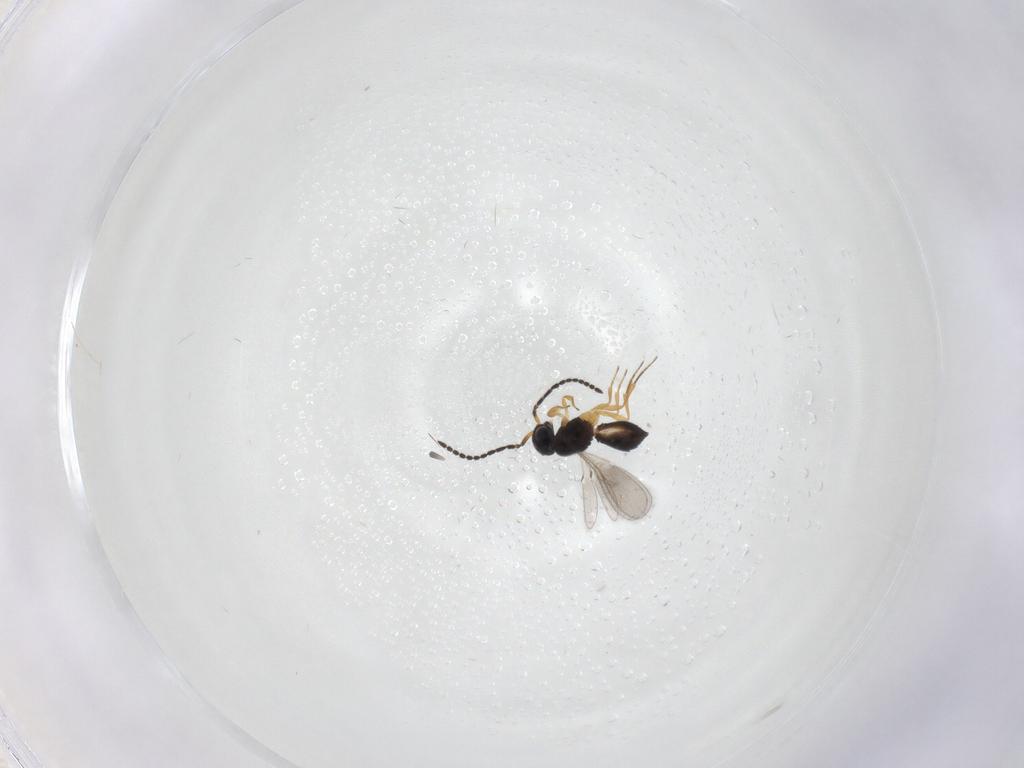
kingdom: Animalia
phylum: Arthropoda
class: Insecta
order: Hymenoptera
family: Scelionidae
